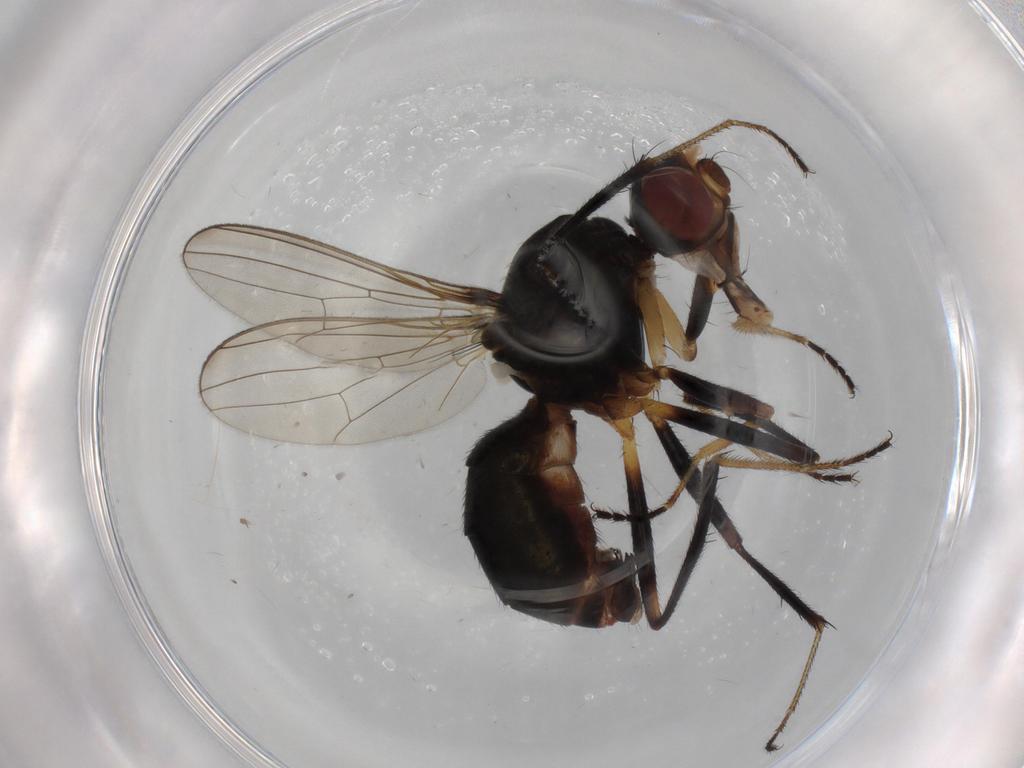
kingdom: Animalia
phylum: Arthropoda
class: Insecta
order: Diptera
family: Sepsidae
